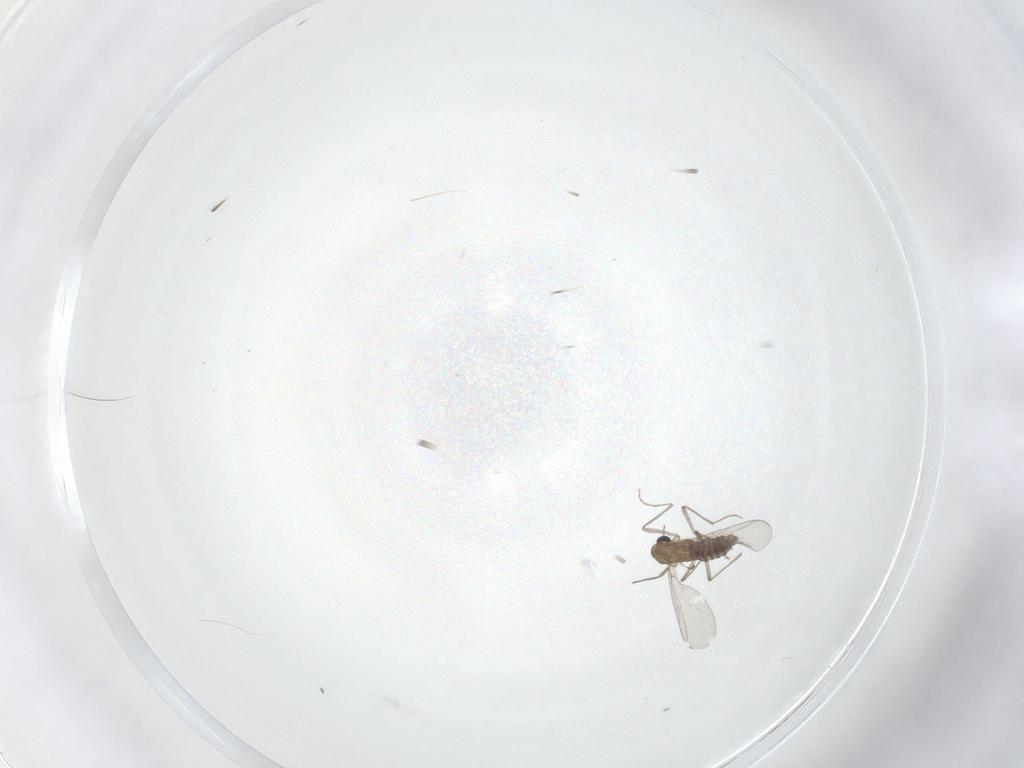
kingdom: Animalia
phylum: Arthropoda
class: Insecta
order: Diptera
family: Chironomidae
